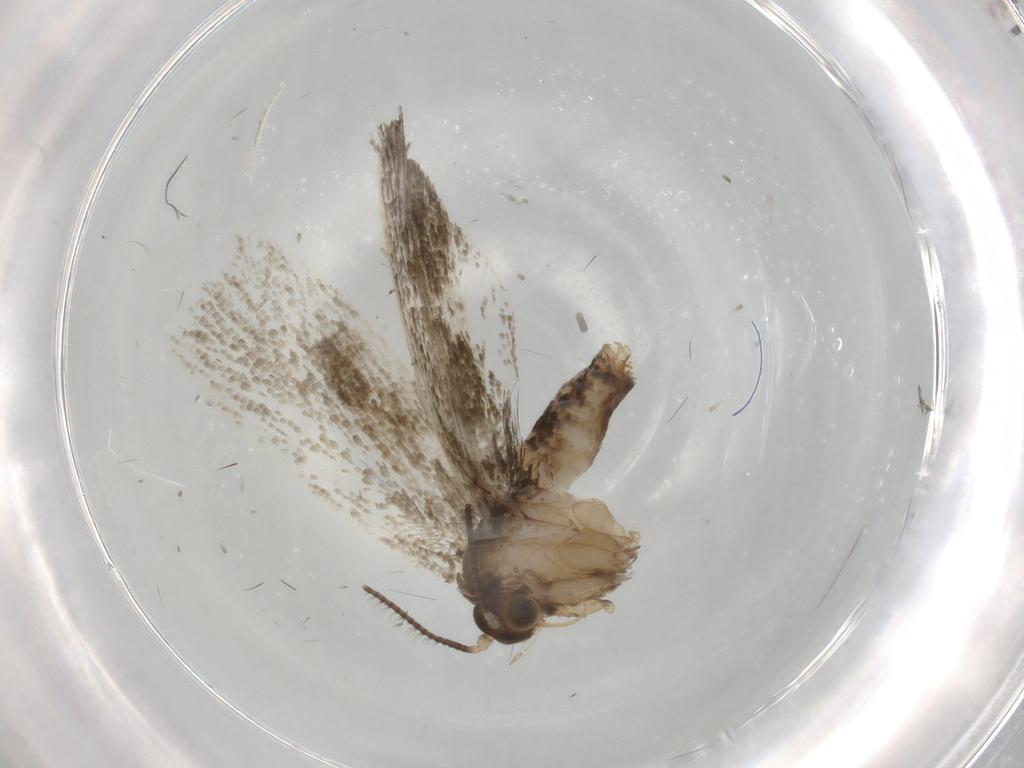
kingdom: Animalia
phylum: Arthropoda
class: Insecta
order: Lepidoptera
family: Tortricidae
